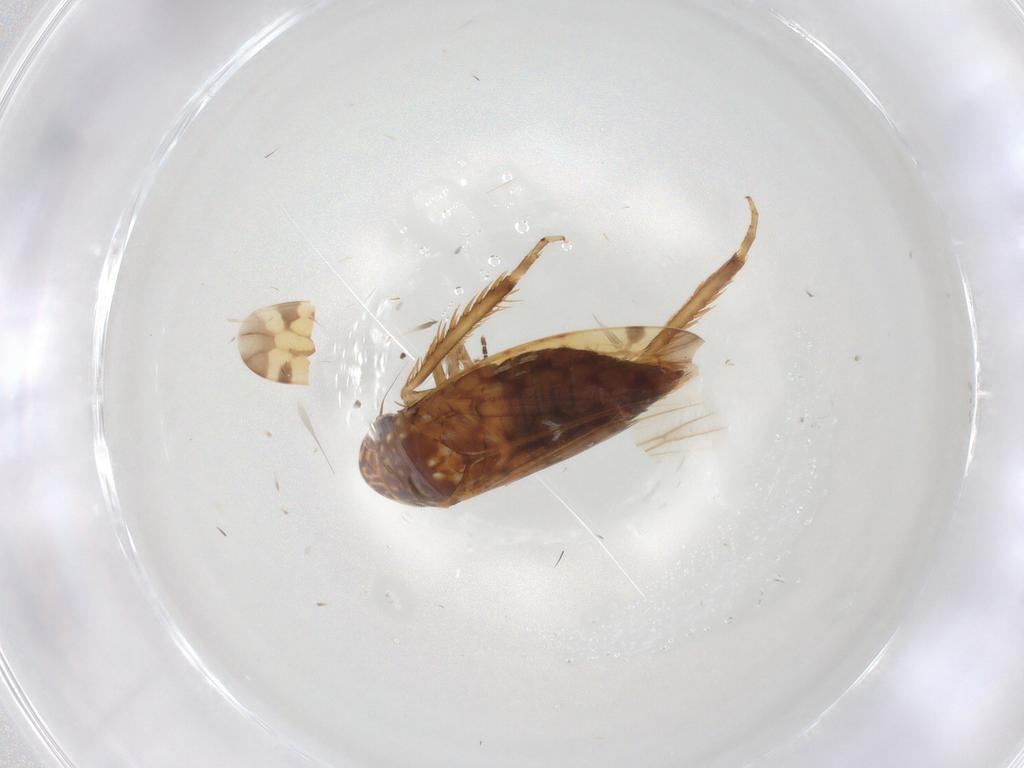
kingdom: Animalia
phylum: Arthropoda
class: Insecta
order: Hemiptera
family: Cicadellidae
